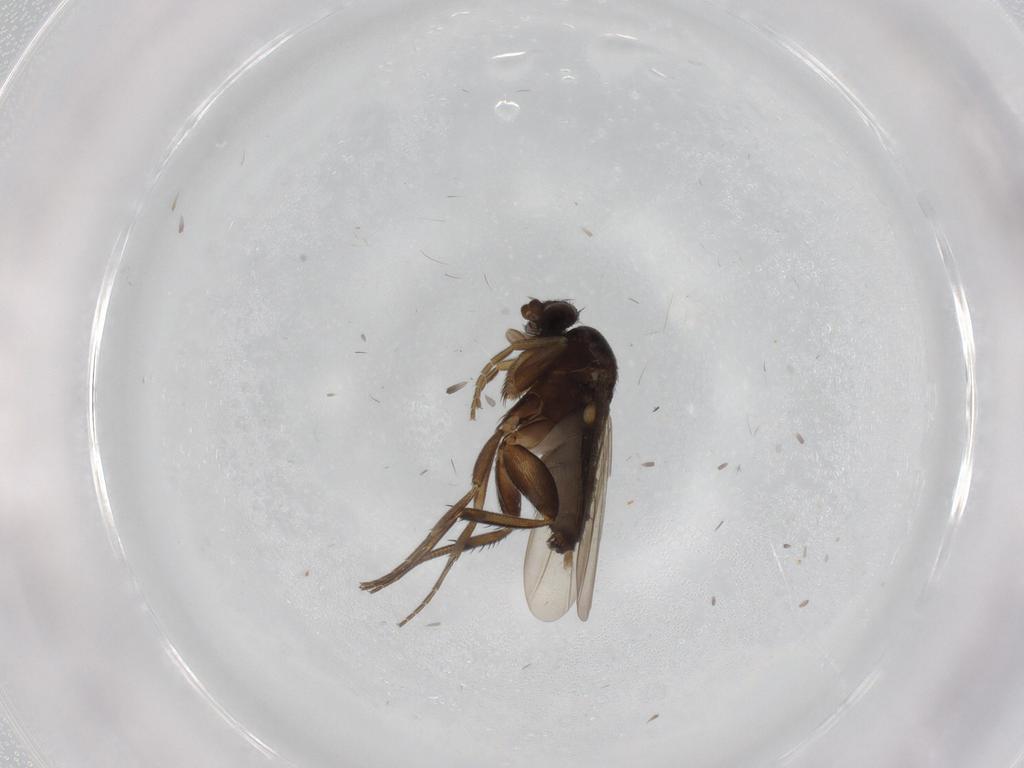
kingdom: Animalia
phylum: Arthropoda
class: Insecta
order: Diptera
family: Phoridae
